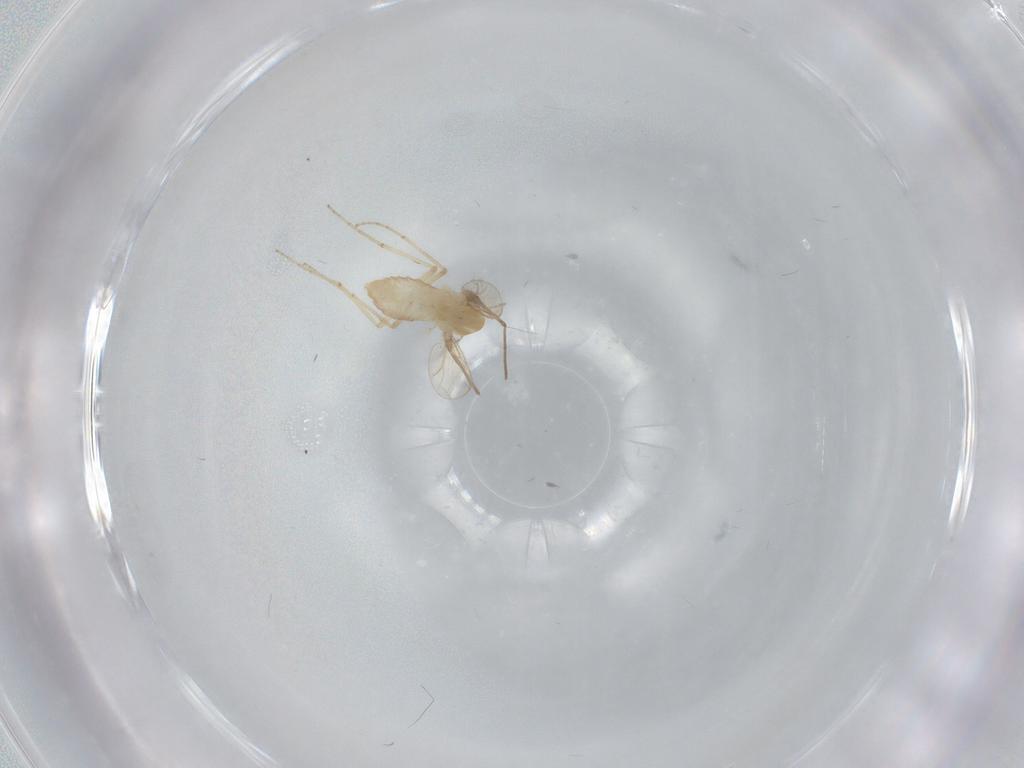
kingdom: Animalia
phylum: Arthropoda
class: Insecta
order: Diptera
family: Chironomidae
